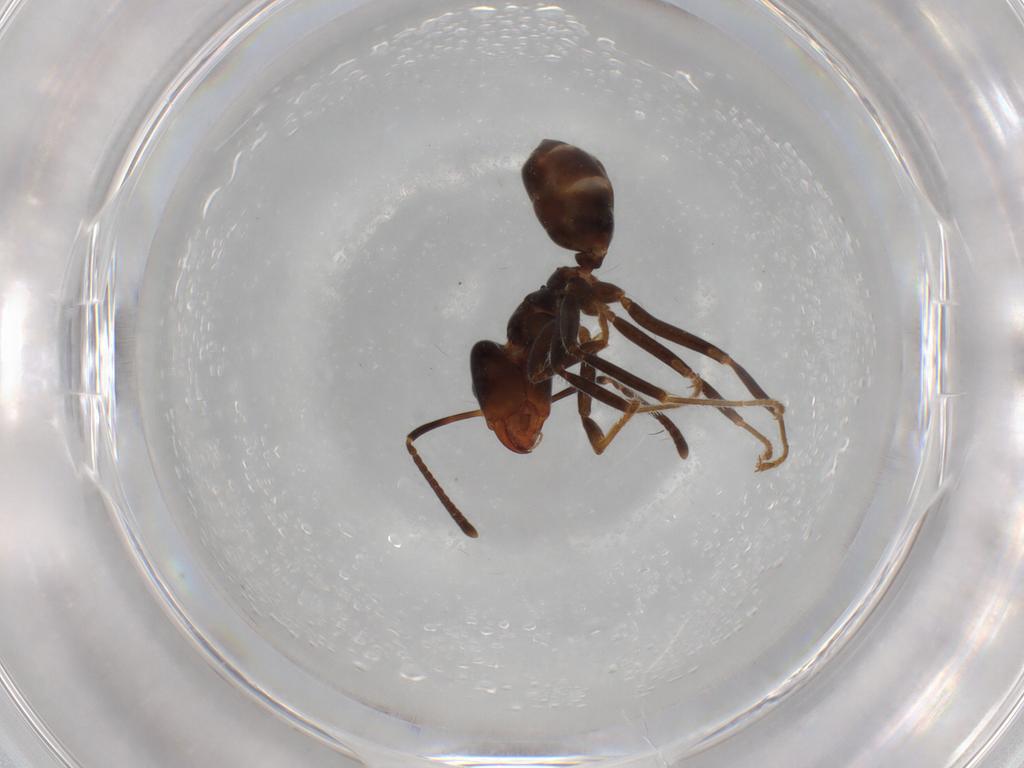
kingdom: Animalia
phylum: Arthropoda
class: Insecta
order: Hymenoptera
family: Formicidae
